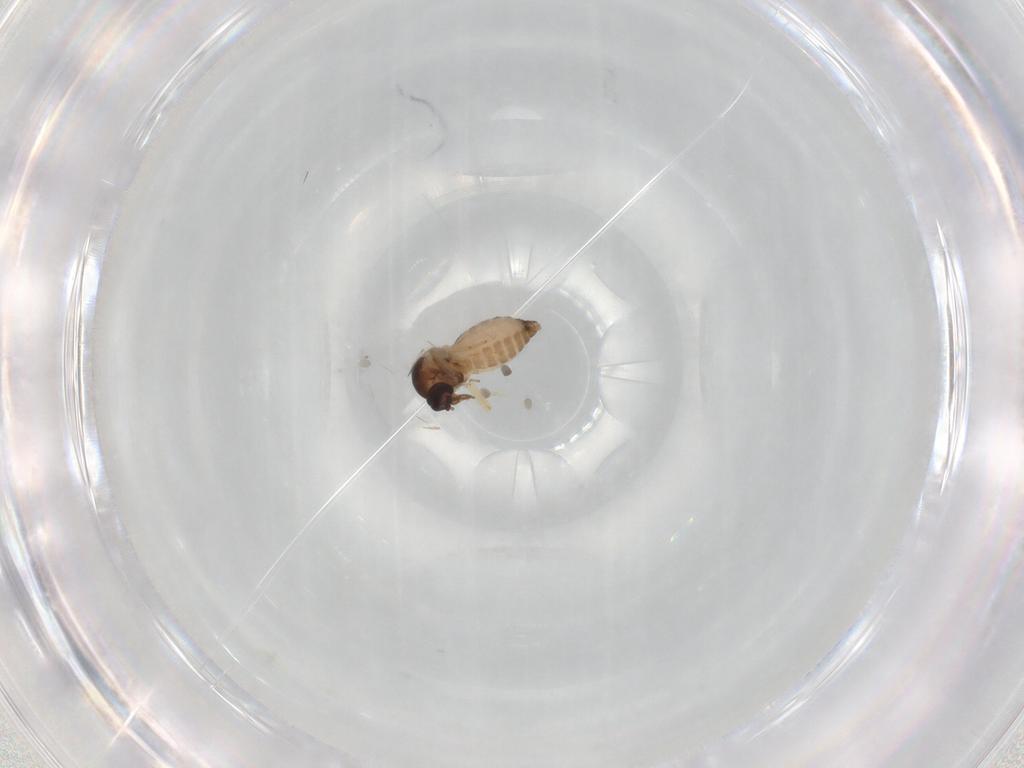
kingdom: Animalia
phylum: Arthropoda
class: Insecta
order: Diptera
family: Ceratopogonidae
